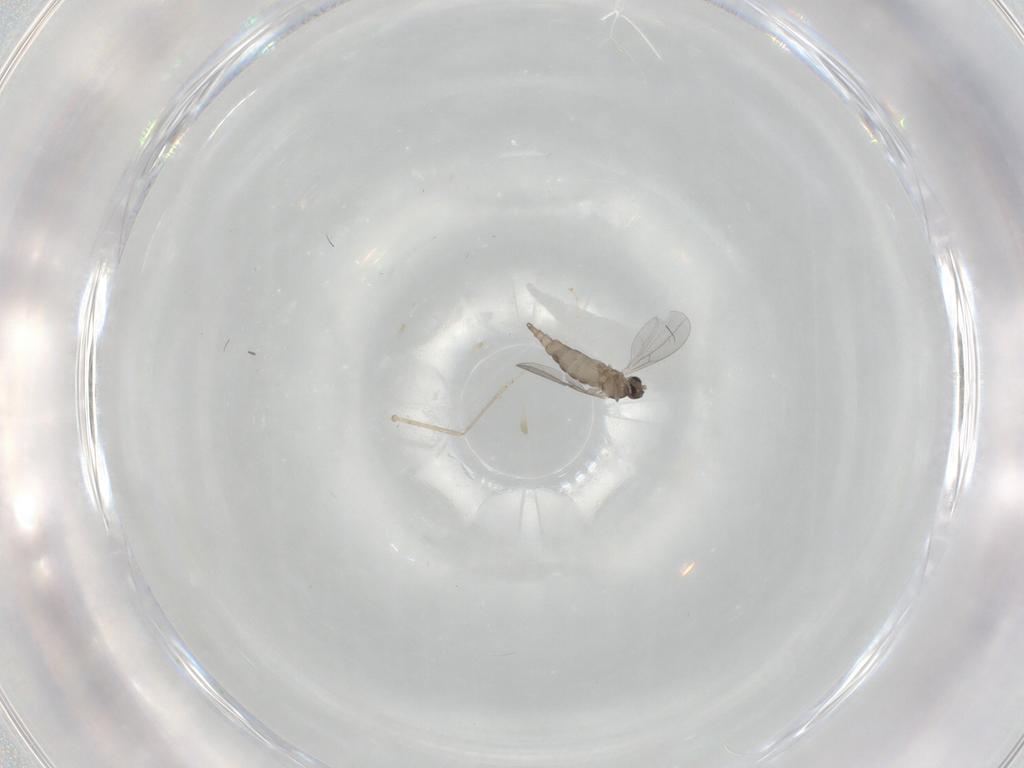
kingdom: Animalia
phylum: Arthropoda
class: Insecta
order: Diptera
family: Cecidomyiidae
